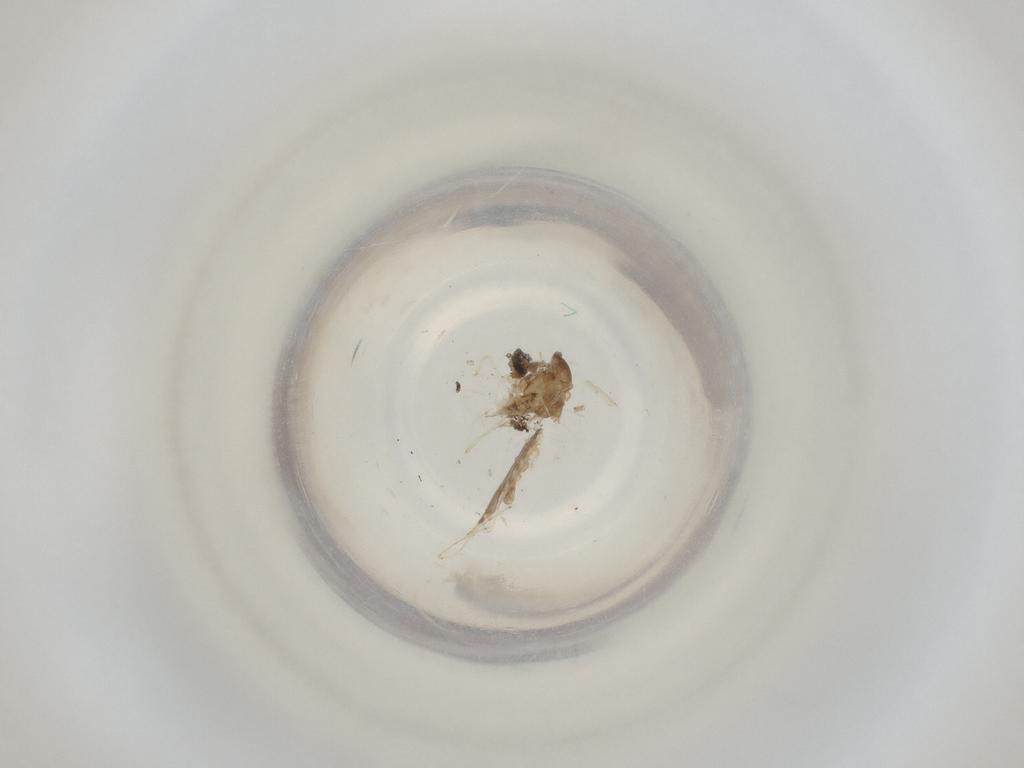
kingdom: Animalia
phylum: Arthropoda
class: Insecta
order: Diptera
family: Cecidomyiidae
